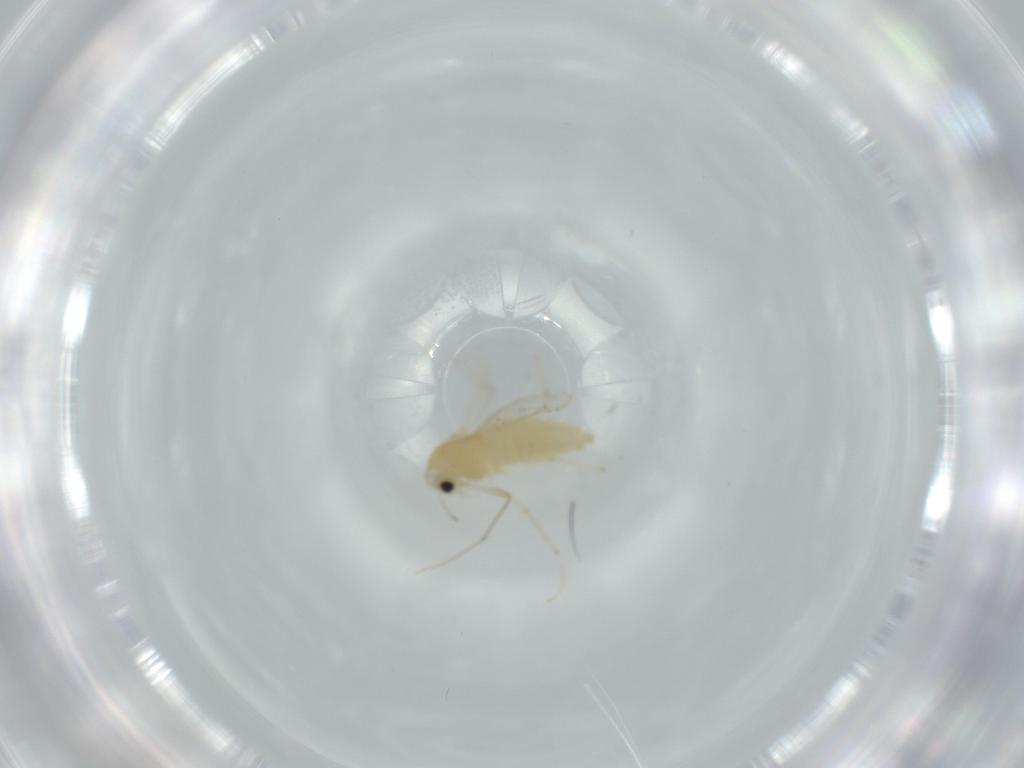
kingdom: Animalia
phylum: Arthropoda
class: Insecta
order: Diptera
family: Chironomidae
